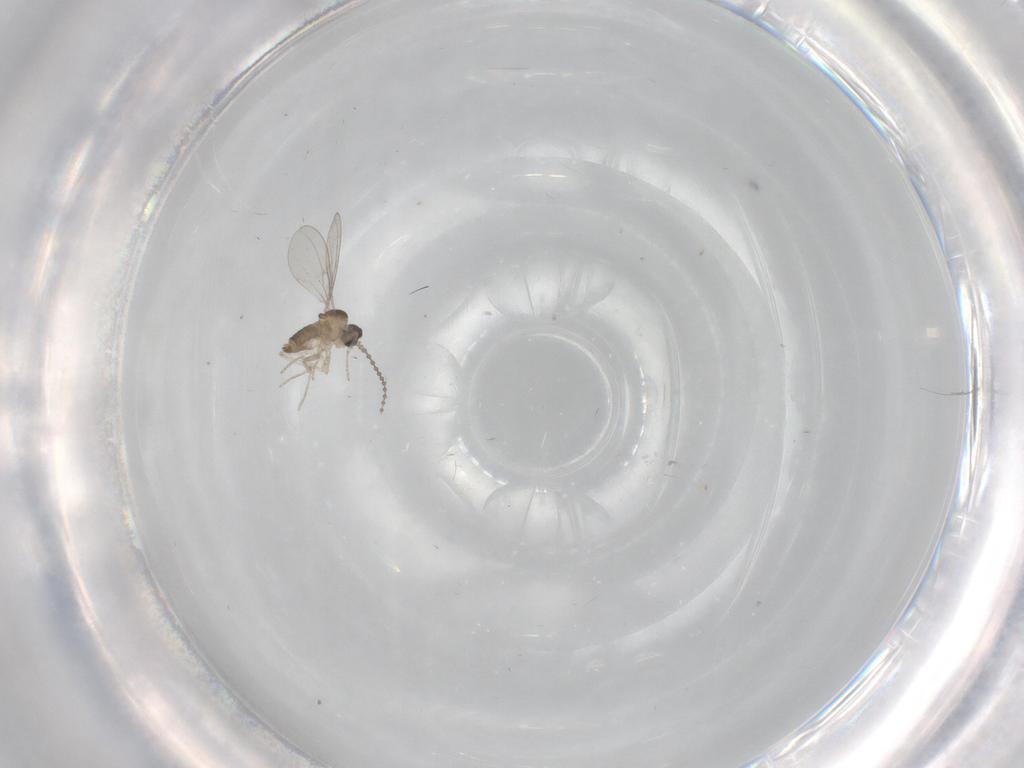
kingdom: Animalia
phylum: Arthropoda
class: Insecta
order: Diptera
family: Cecidomyiidae
